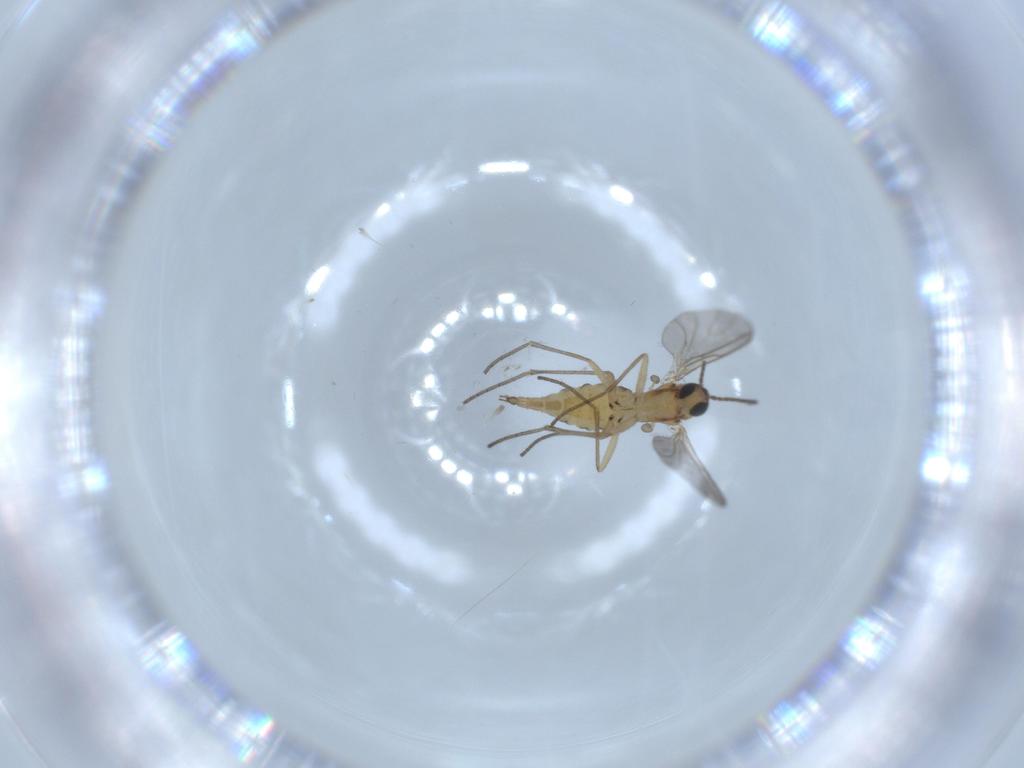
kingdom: Animalia
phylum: Arthropoda
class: Insecta
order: Diptera
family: Sciaridae
